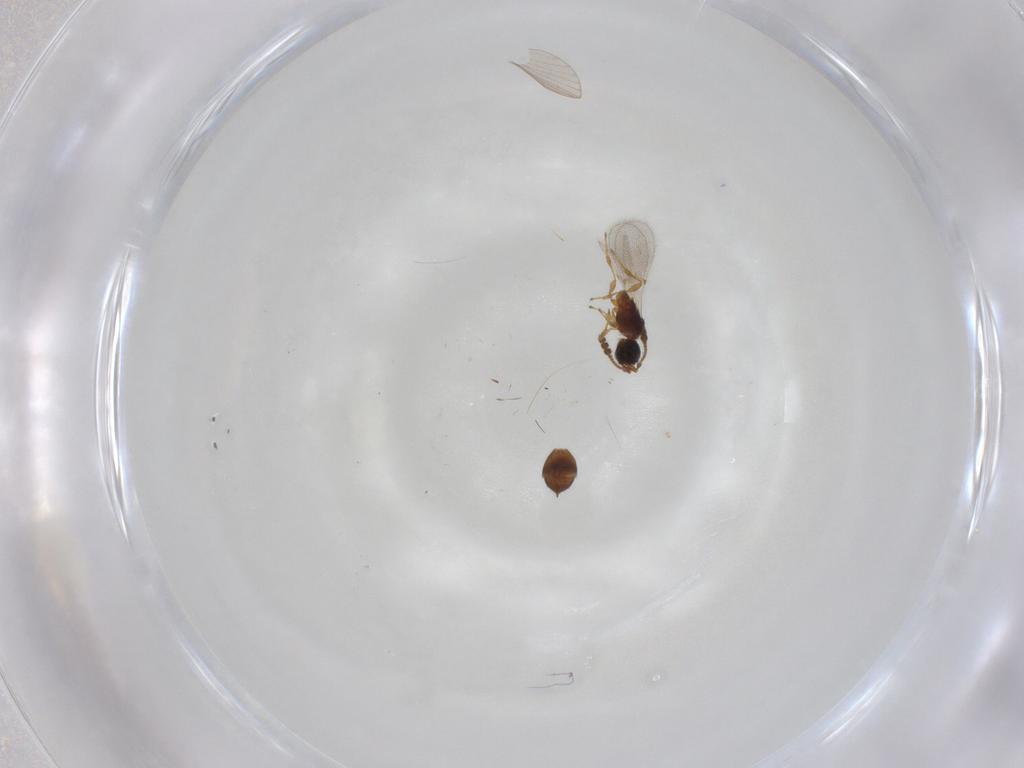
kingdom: Animalia
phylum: Arthropoda
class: Insecta
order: Hymenoptera
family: Diapriidae
